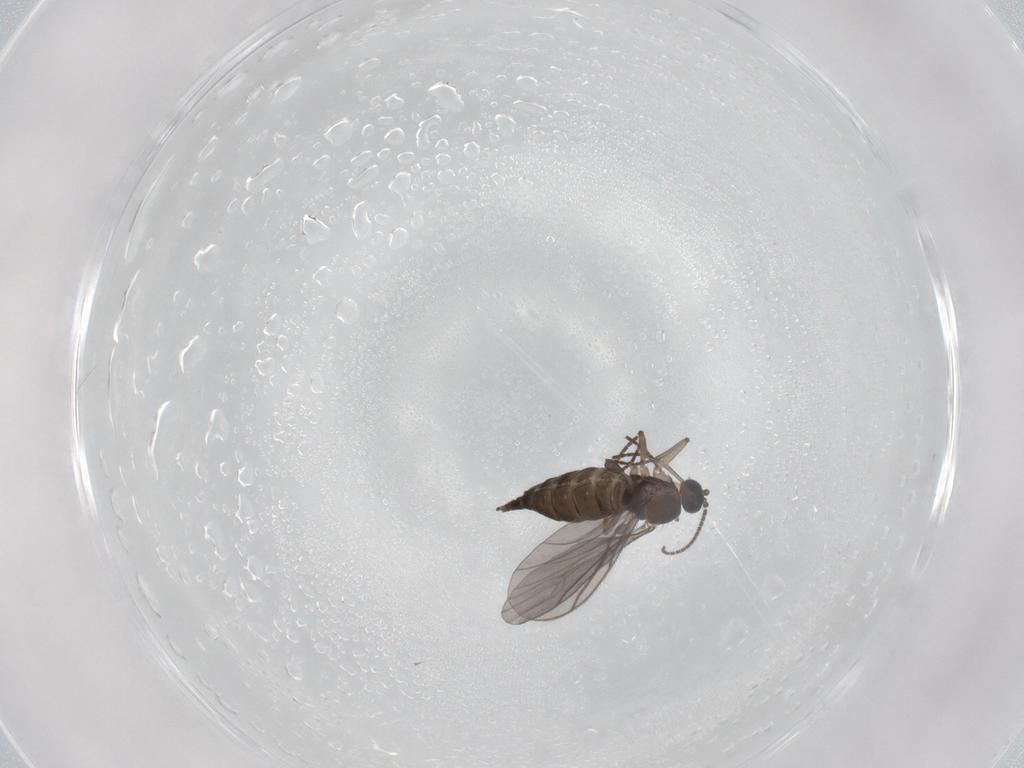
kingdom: Animalia
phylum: Arthropoda
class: Insecta
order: Diptera
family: Sciaridae
